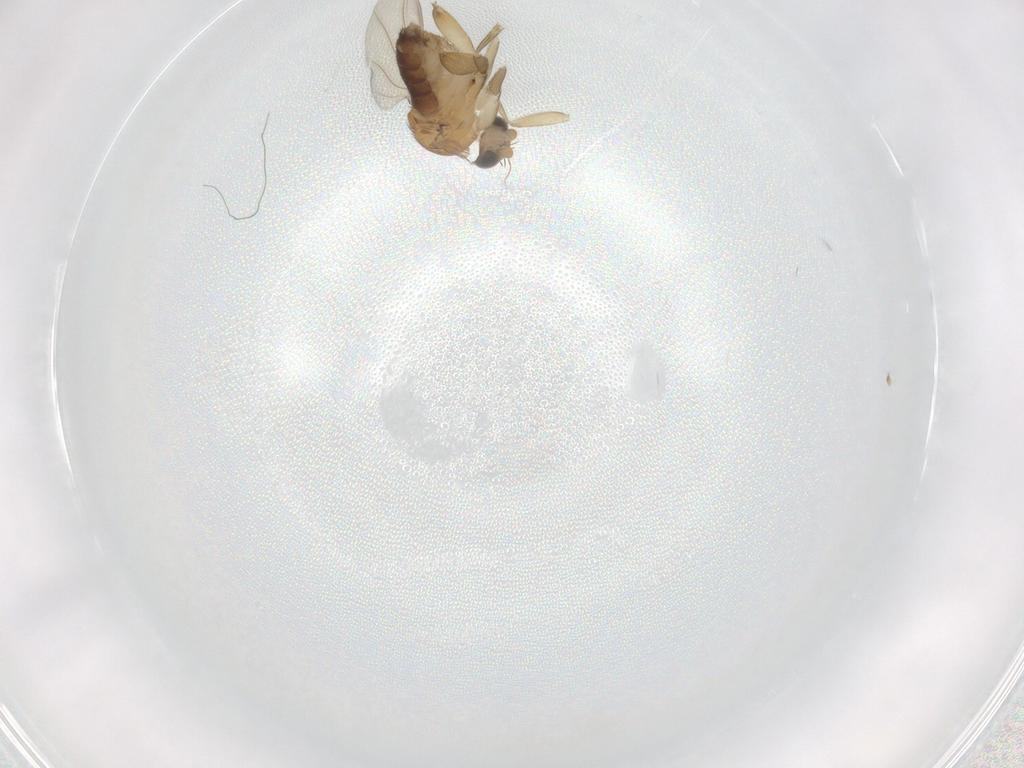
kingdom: Animalia
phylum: Arthropoda
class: Insecta
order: Diptera
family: Phoridae
